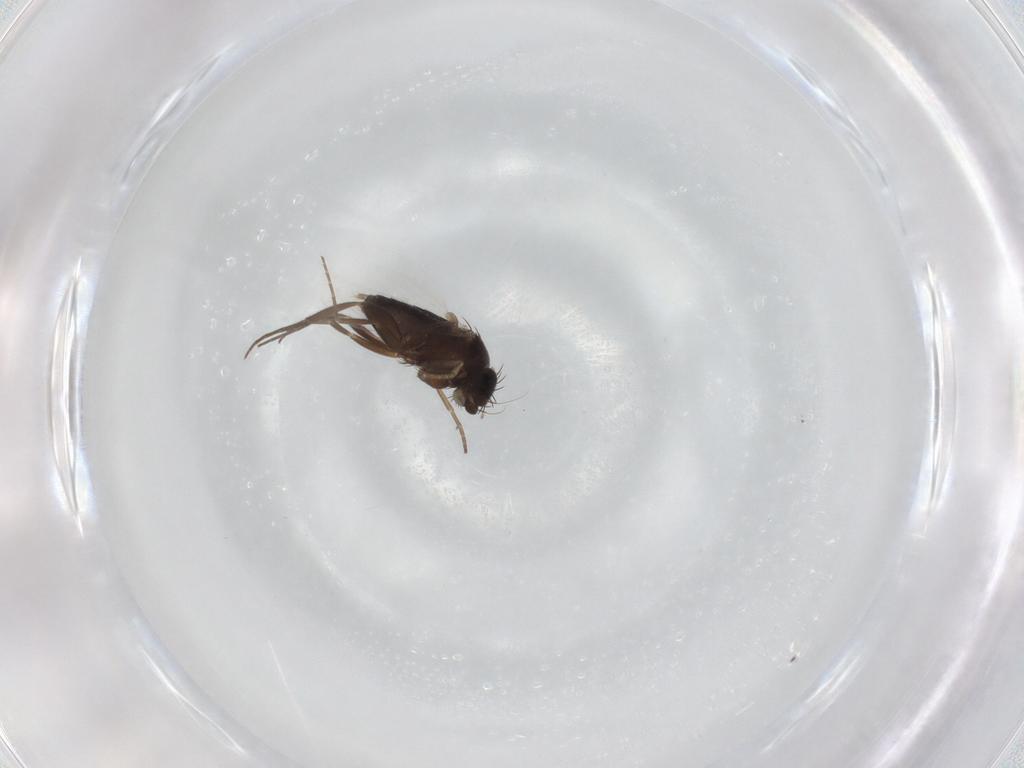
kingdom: Animalia
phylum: Arthropoda
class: Insecta
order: Diptera
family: Phoridae
